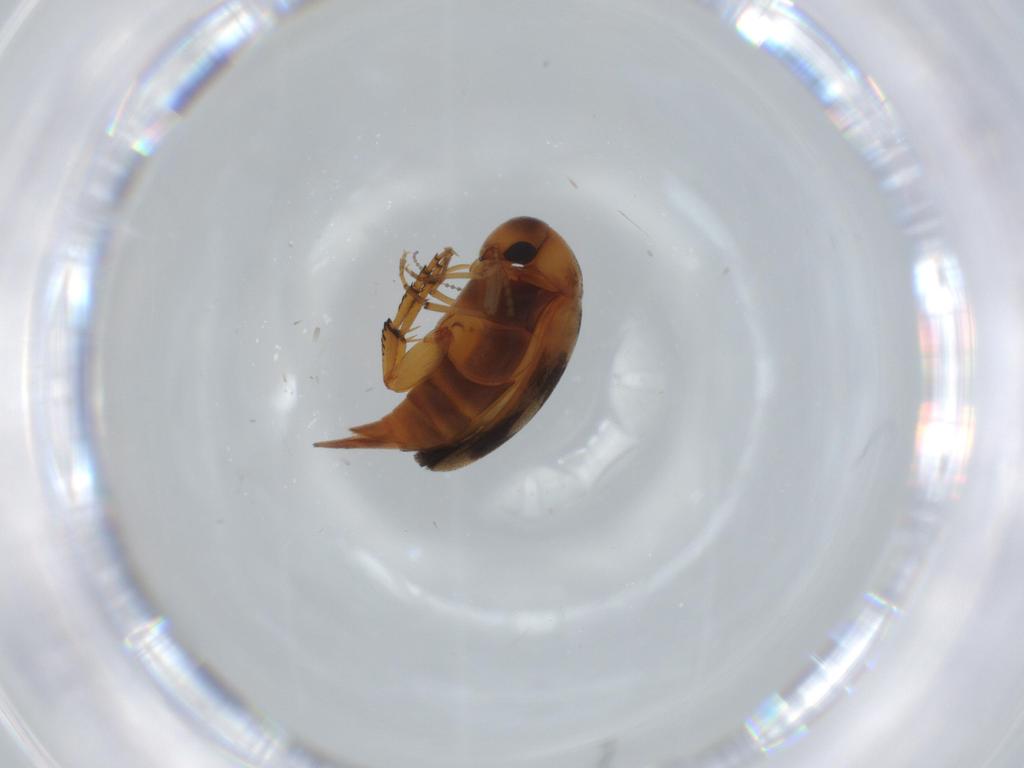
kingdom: Animalia
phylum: Arthropoda
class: Insecta
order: Coleoptera
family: Mordellidae
